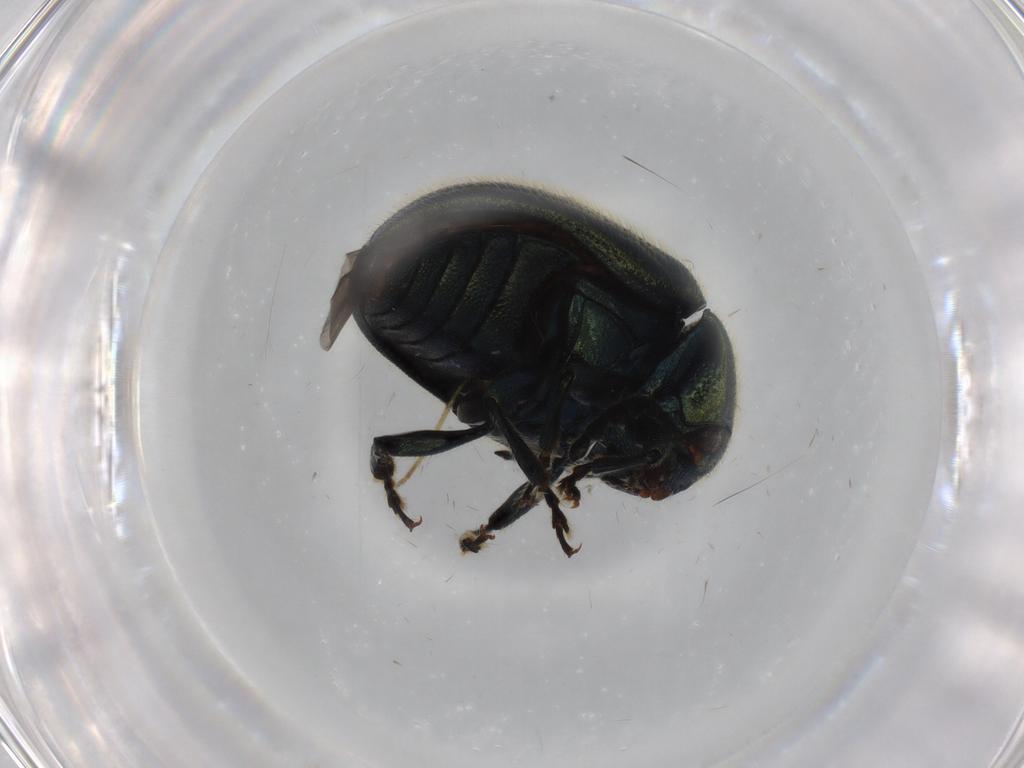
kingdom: Animalia
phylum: Arthropoda
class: Insecta
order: Coleoptera
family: Chrysomelidae
